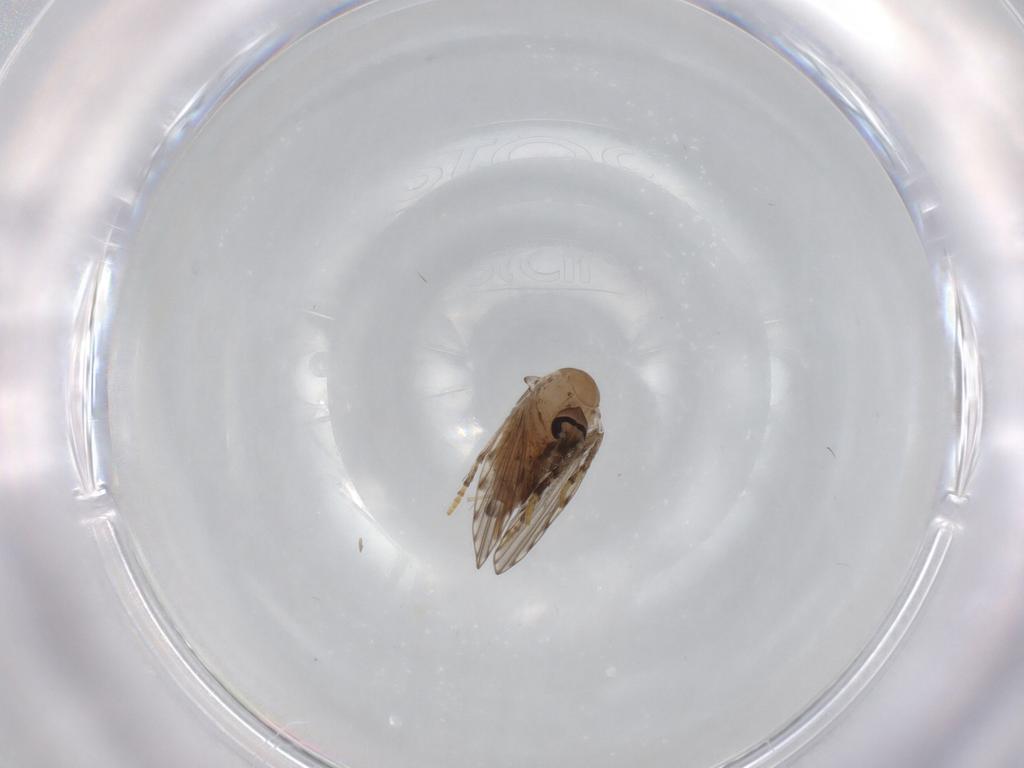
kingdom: Animalia
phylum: Arthropoda
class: Insecta
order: Diptera
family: Psychodidae
